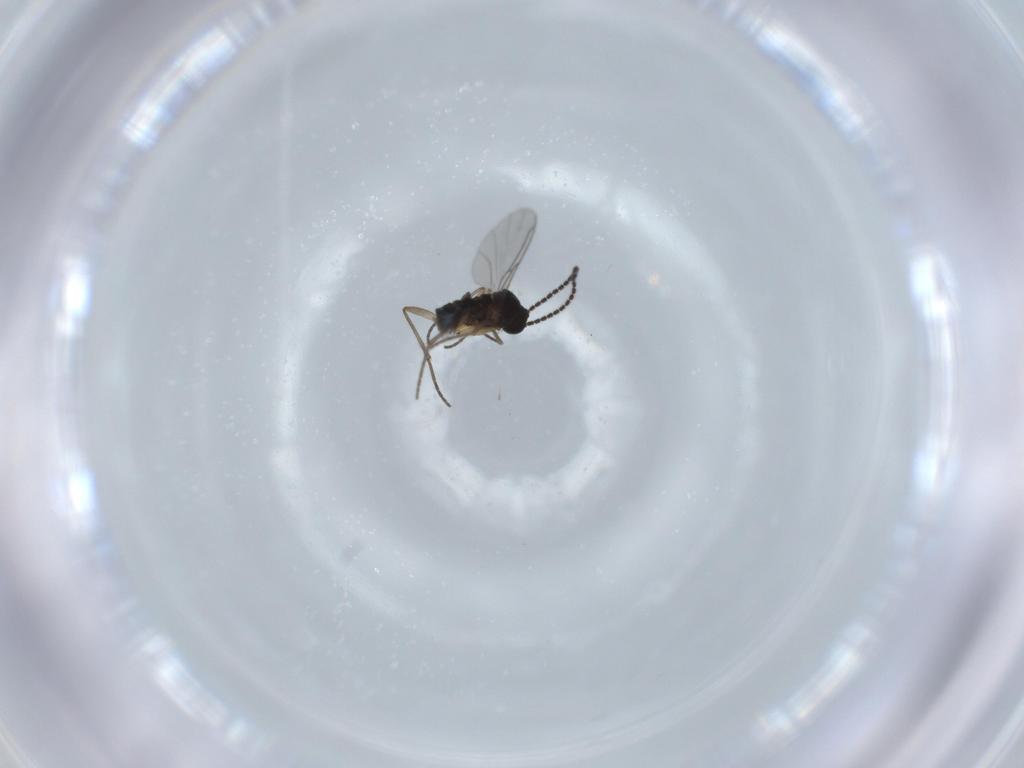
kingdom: Animalia
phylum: Arthropoda
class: Insecta
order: Diptera
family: Sciaridae
